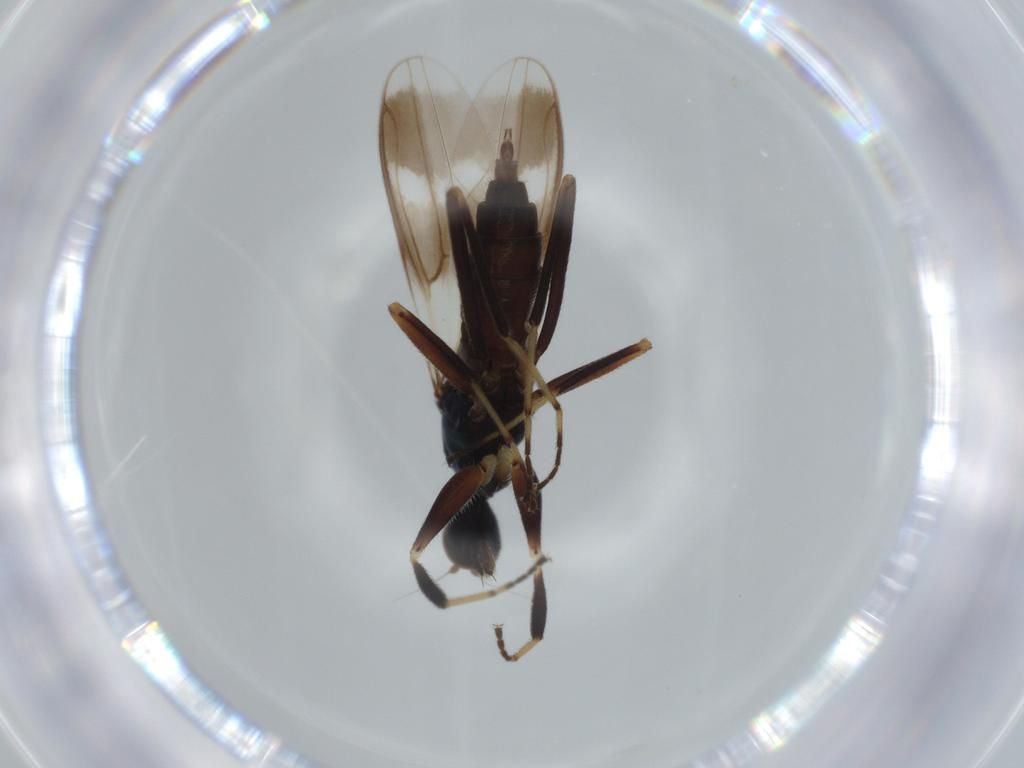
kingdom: Animalia
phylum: Arthropoda
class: Insecta
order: Diptera
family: Hybotidae
